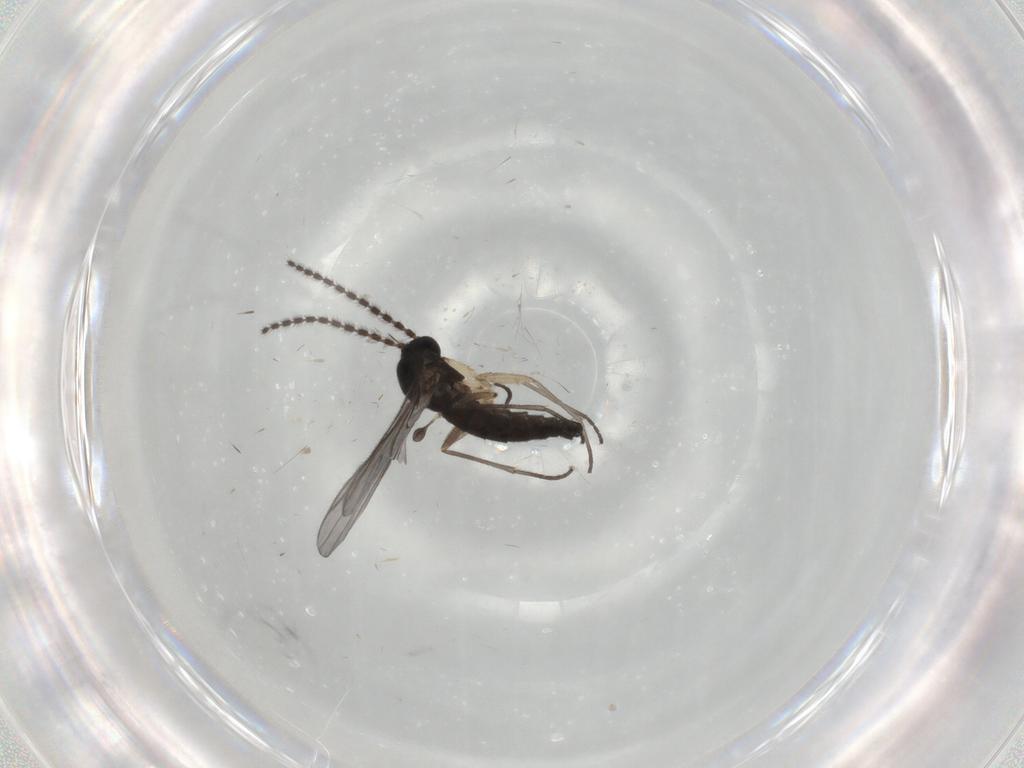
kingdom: Animalia
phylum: Arthropoda
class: Insecta
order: Diptera
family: Sciaridae
